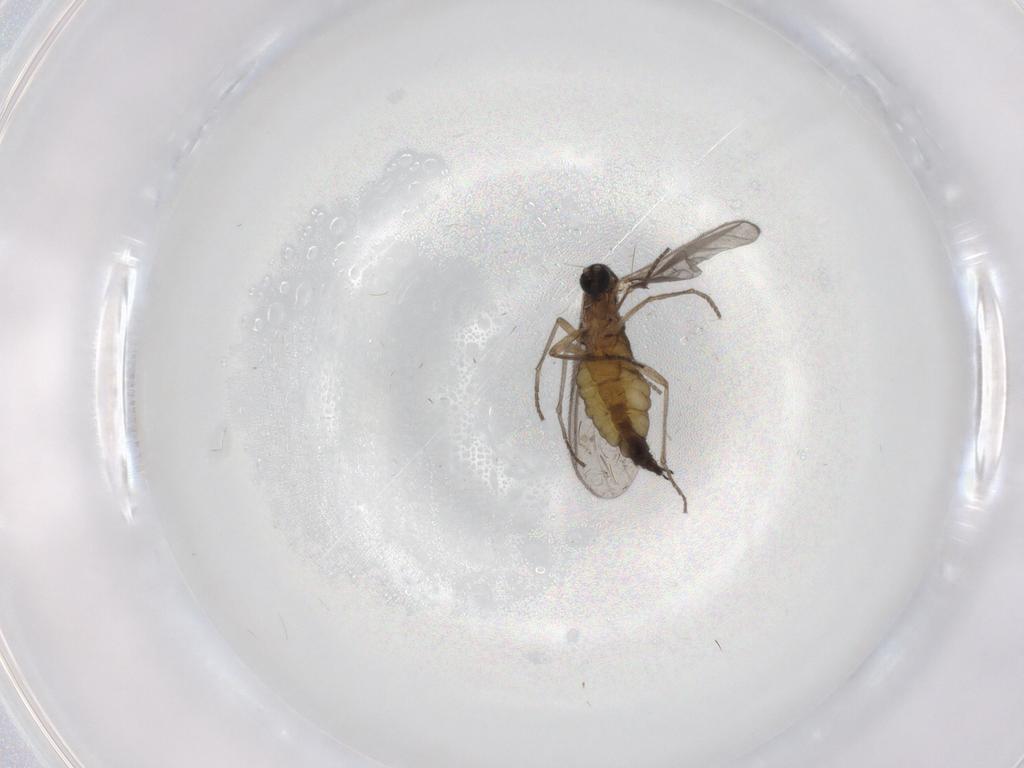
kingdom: Animalia
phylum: Arthropoda
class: Insecta
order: Diptera
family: Sciaridae
